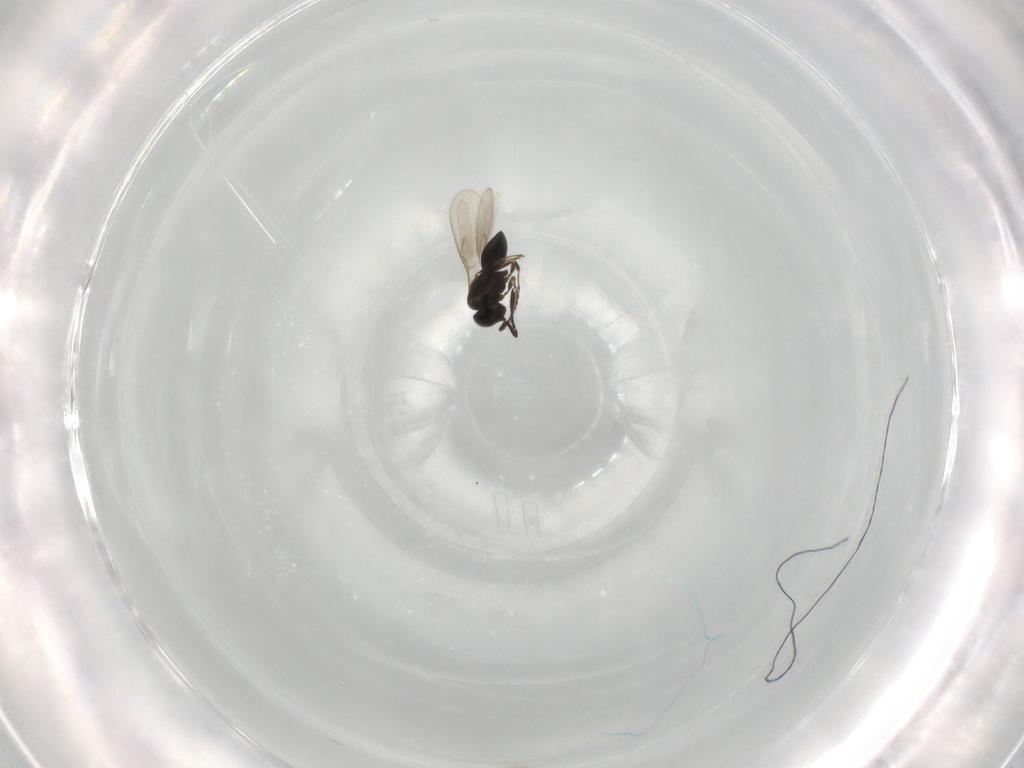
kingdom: Animalia
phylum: Arthropoda
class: Insecta
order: Hymenoptera
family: Scelionidae
